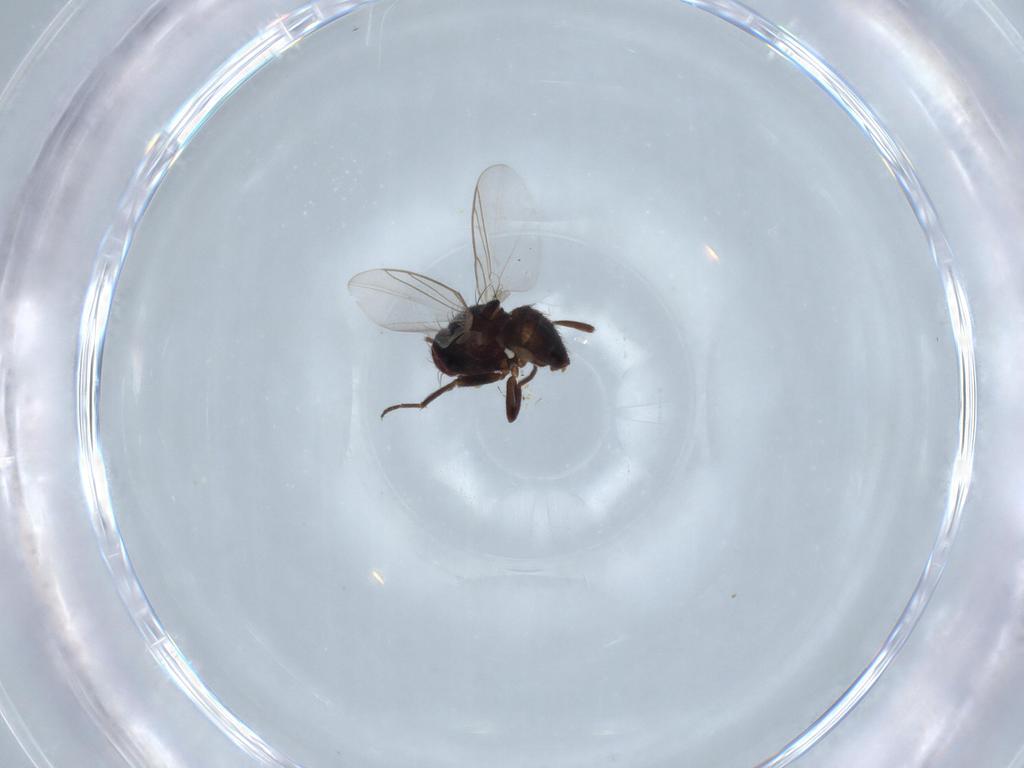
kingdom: Animalia
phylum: Arthropoda
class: Insecta
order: Diptera
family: Scatopsidae
